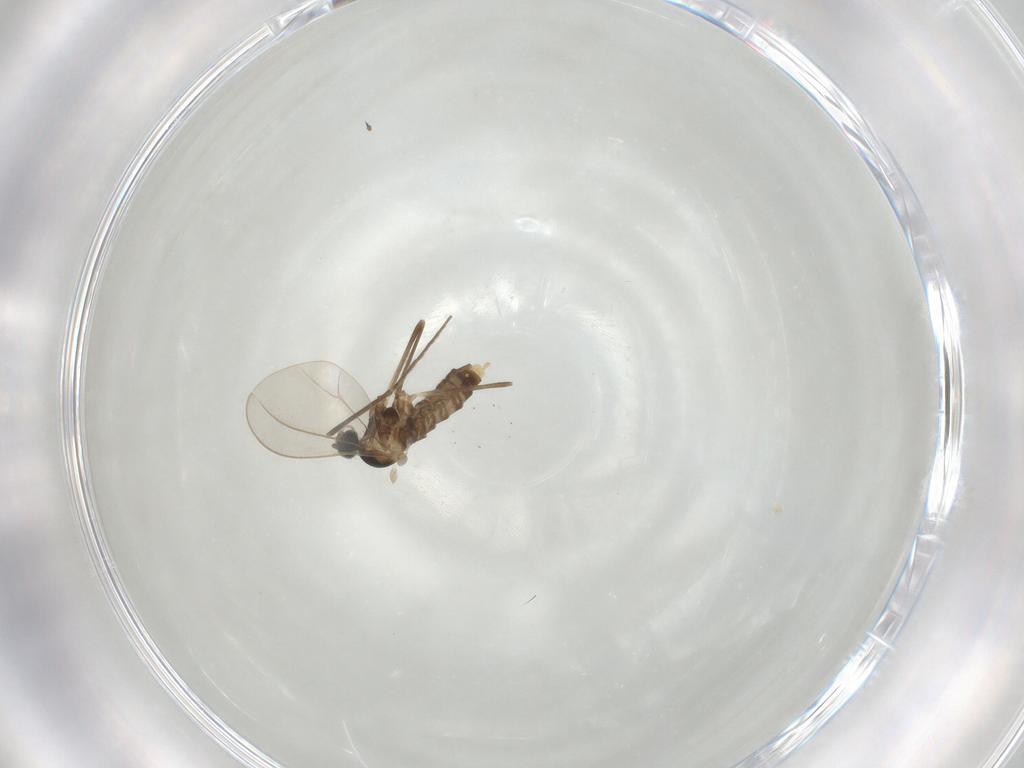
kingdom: Animalia
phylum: Arthropoda
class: Insecta
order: Diptera
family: Cecidomyiidae
